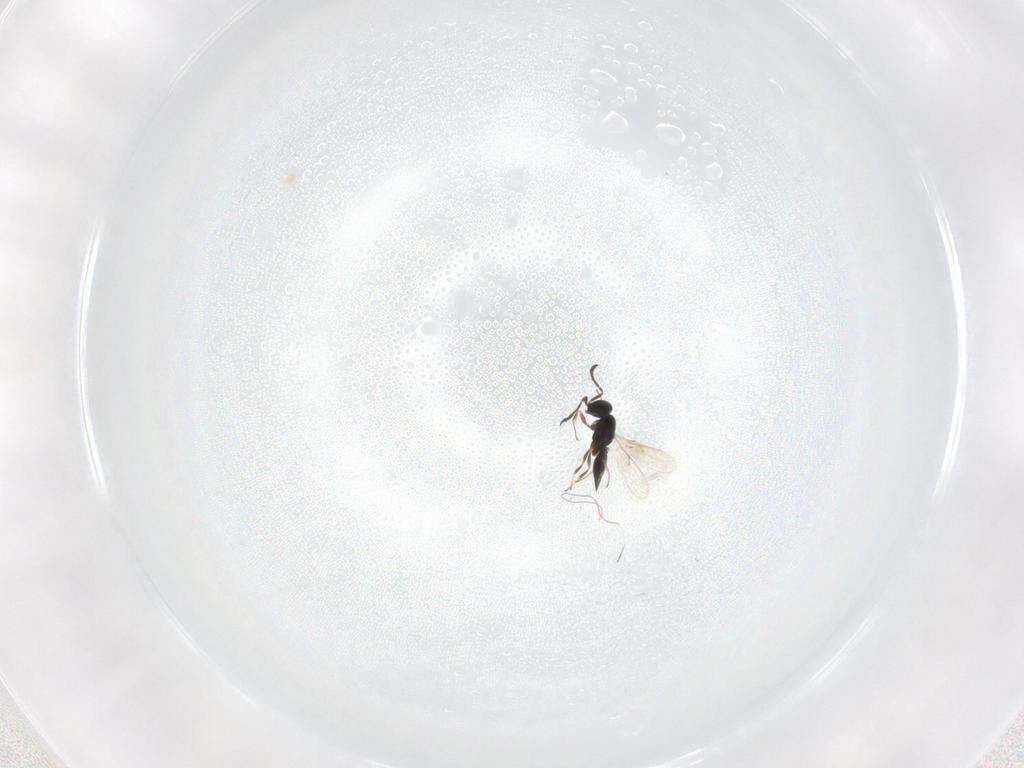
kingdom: Animalia
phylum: Arthropoda
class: Insecta
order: Hymenoptera
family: Scelionidae
